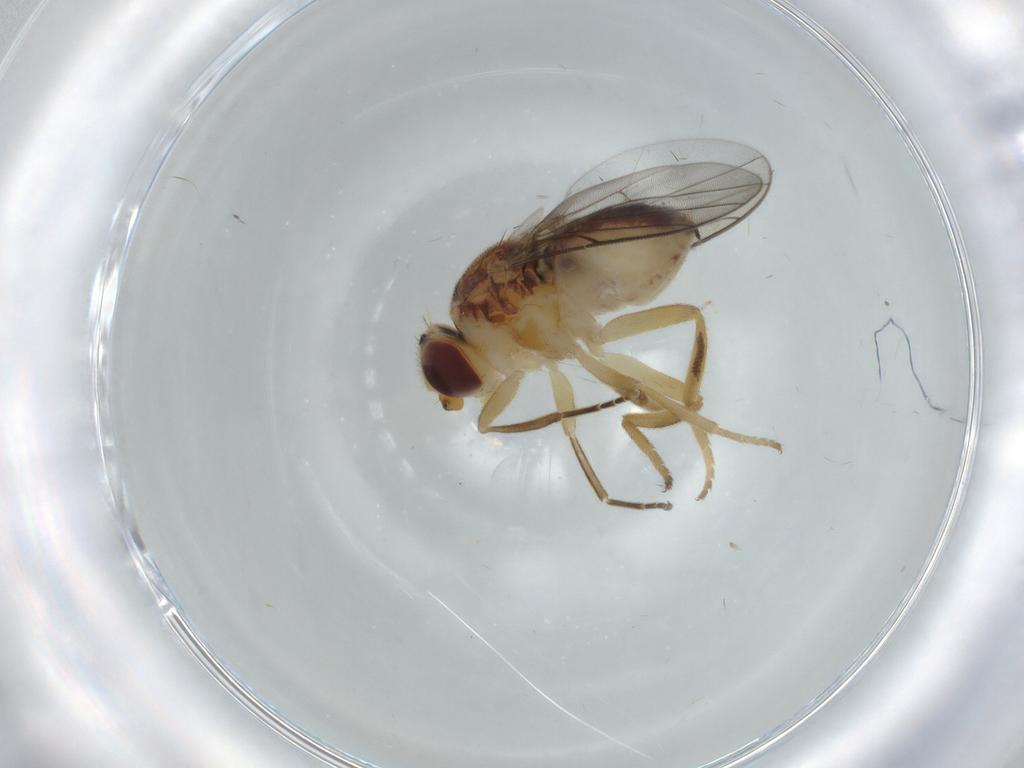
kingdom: Animalia
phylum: Arthropoda
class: Insecta
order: Diptera
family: Chloropidae
